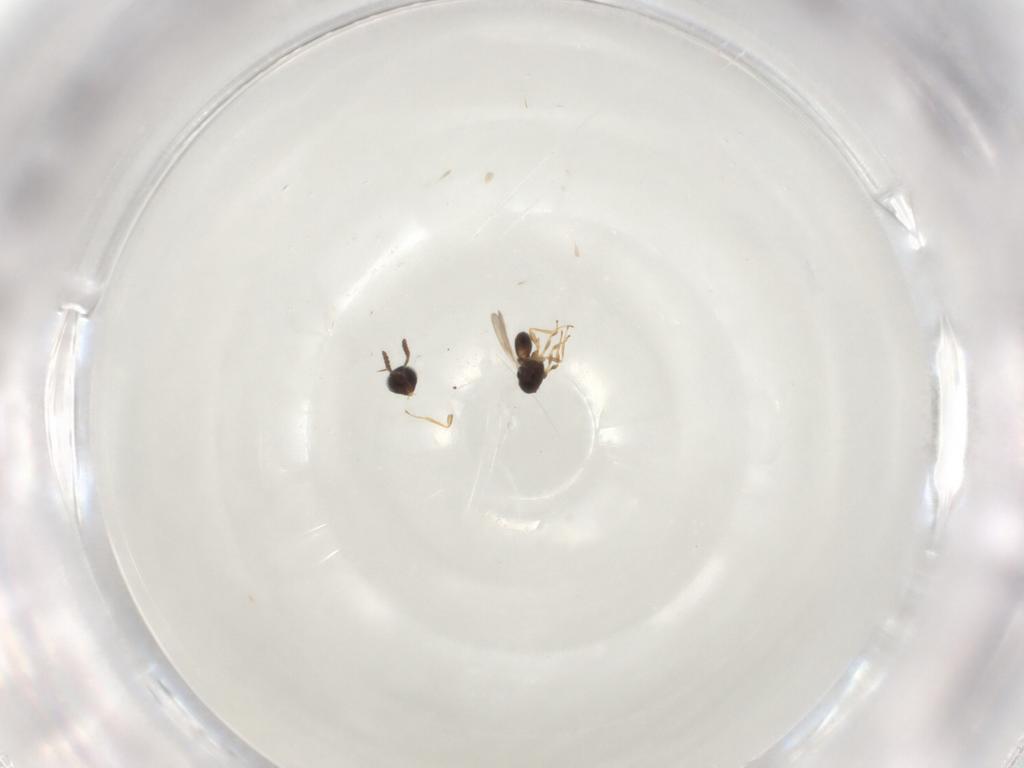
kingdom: Animalia
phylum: Arthropoda
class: Insecta
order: Hymenoptera
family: Scelionidae
